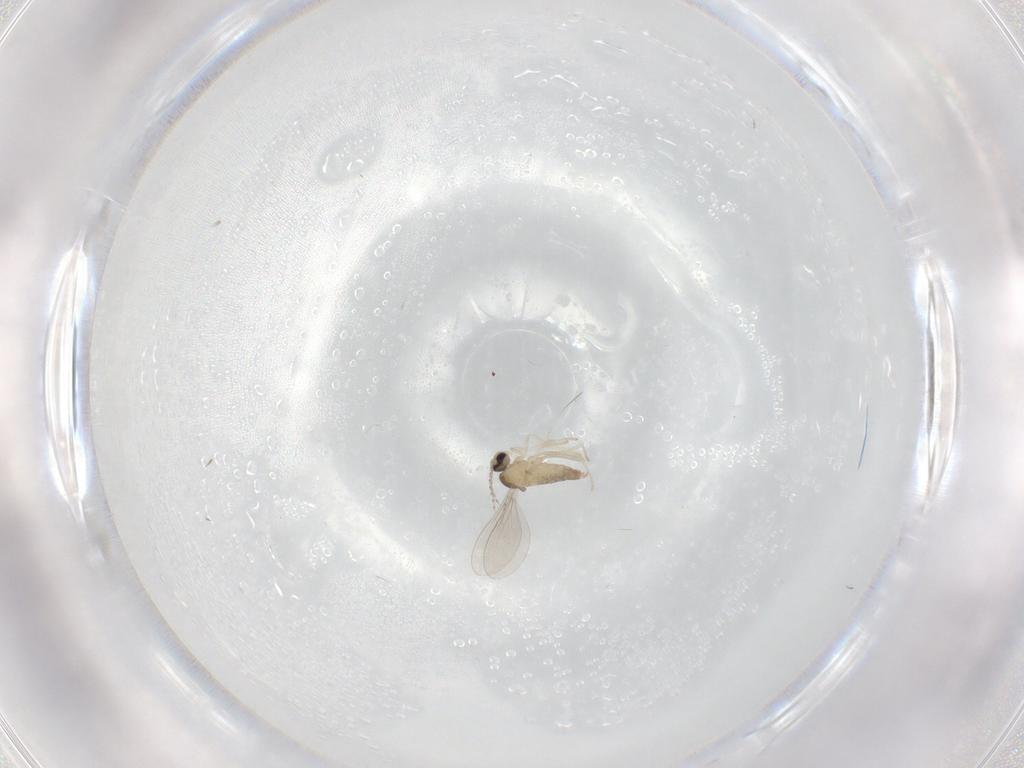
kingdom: Animalia
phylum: Arthropoda
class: Insecta
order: Diptera
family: Cecidomyiidae
